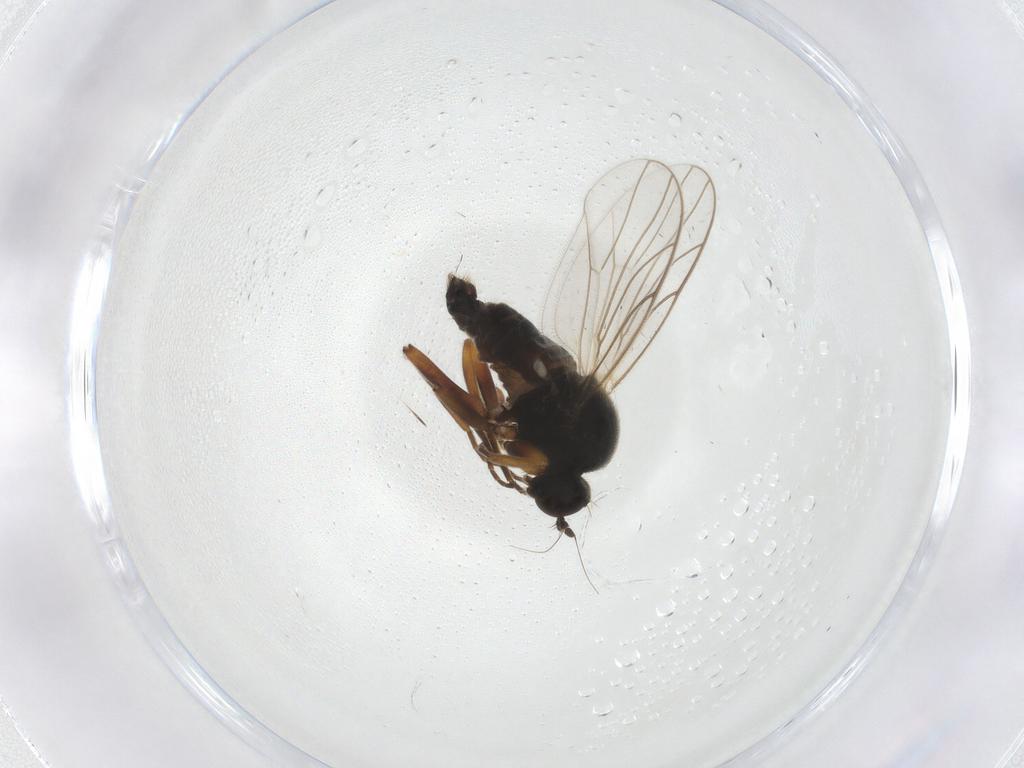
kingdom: Animalia
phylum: Arthropoda
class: Insecta
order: Diptera
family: Hybotidae
